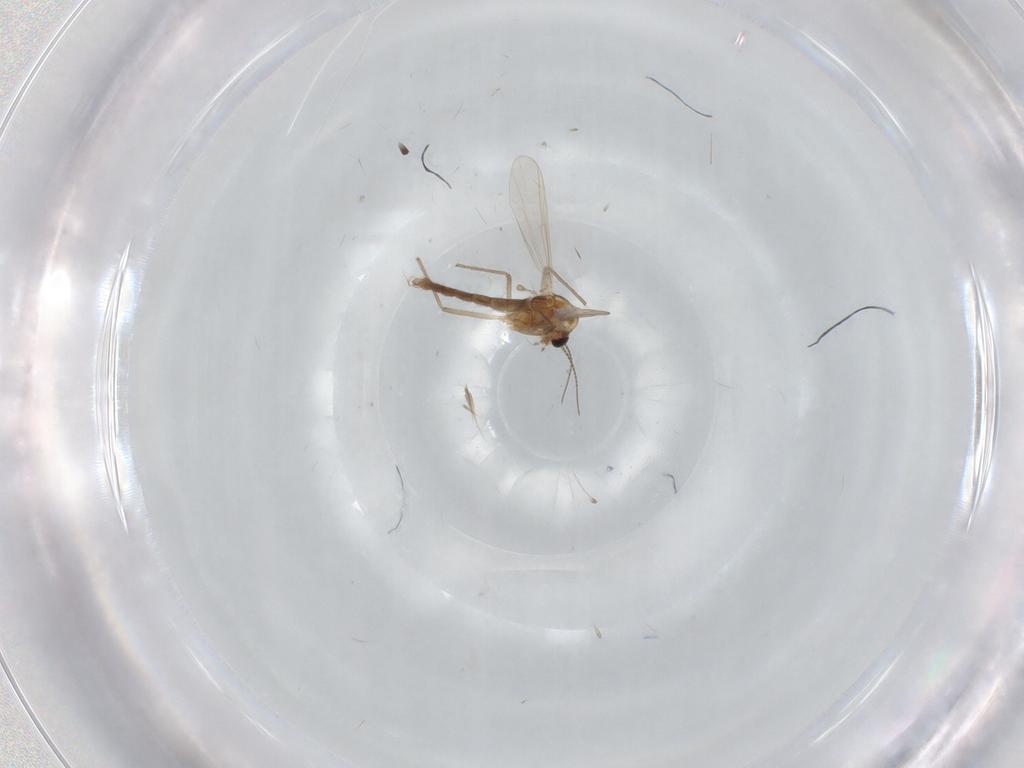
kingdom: Animalia
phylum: Arthropoda
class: Insecta
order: Diptera
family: Chironomidae
